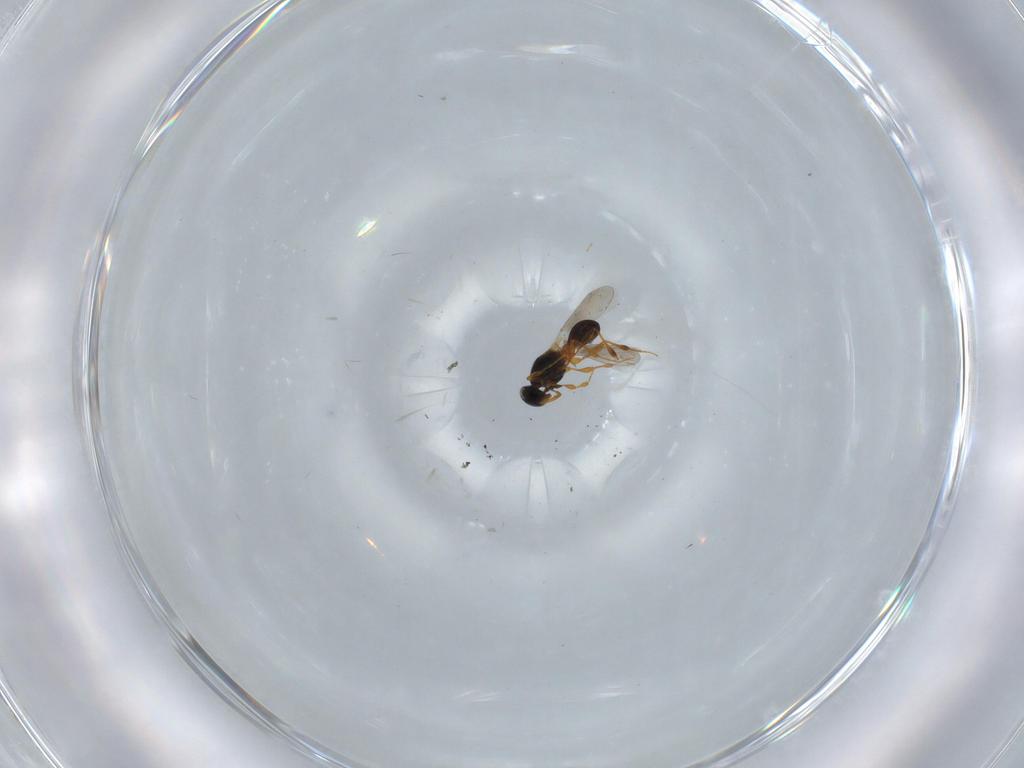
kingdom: Animalia
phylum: Arthropoda
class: Insecta
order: Hymenoptera
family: Platygastridae
